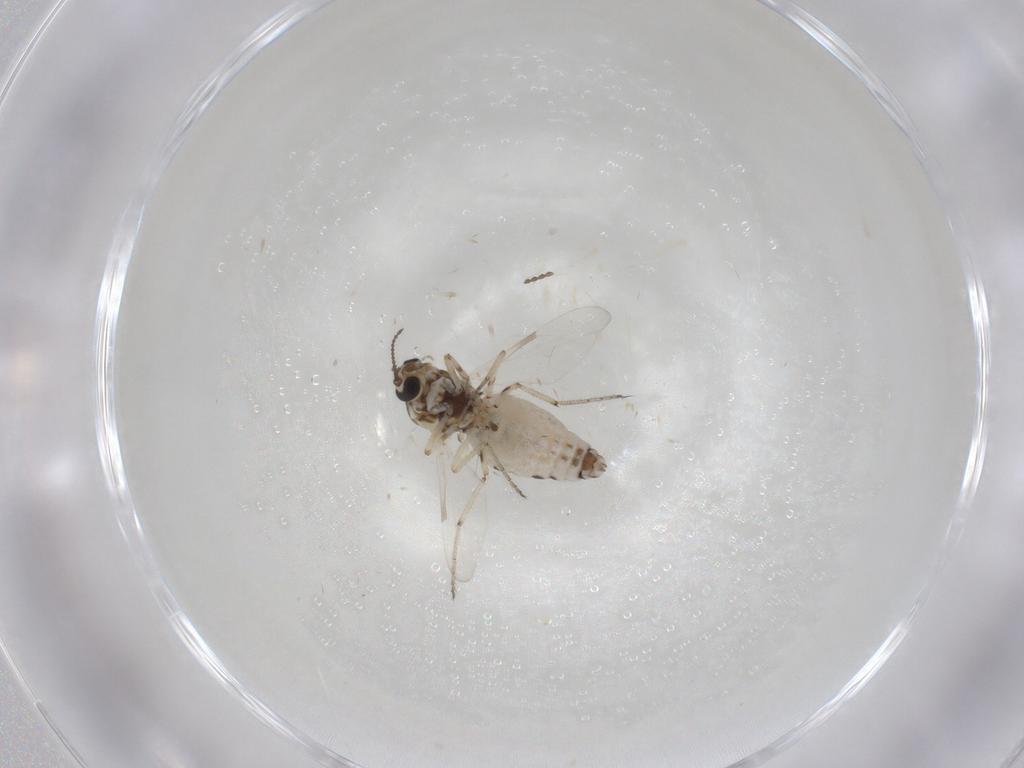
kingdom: Animalia
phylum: Arthropoda
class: Insecta
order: Diptera
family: Ceratopogonidae
